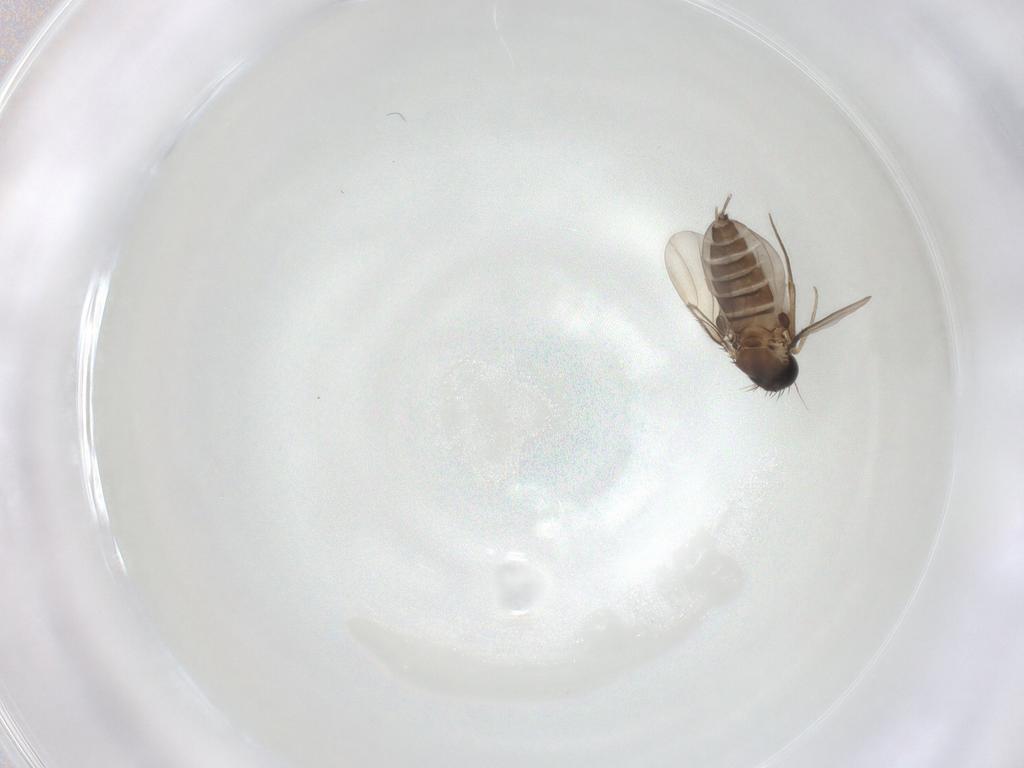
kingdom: Animalia
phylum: Arthropoda
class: Insecta
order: Diptera
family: Phoridae
